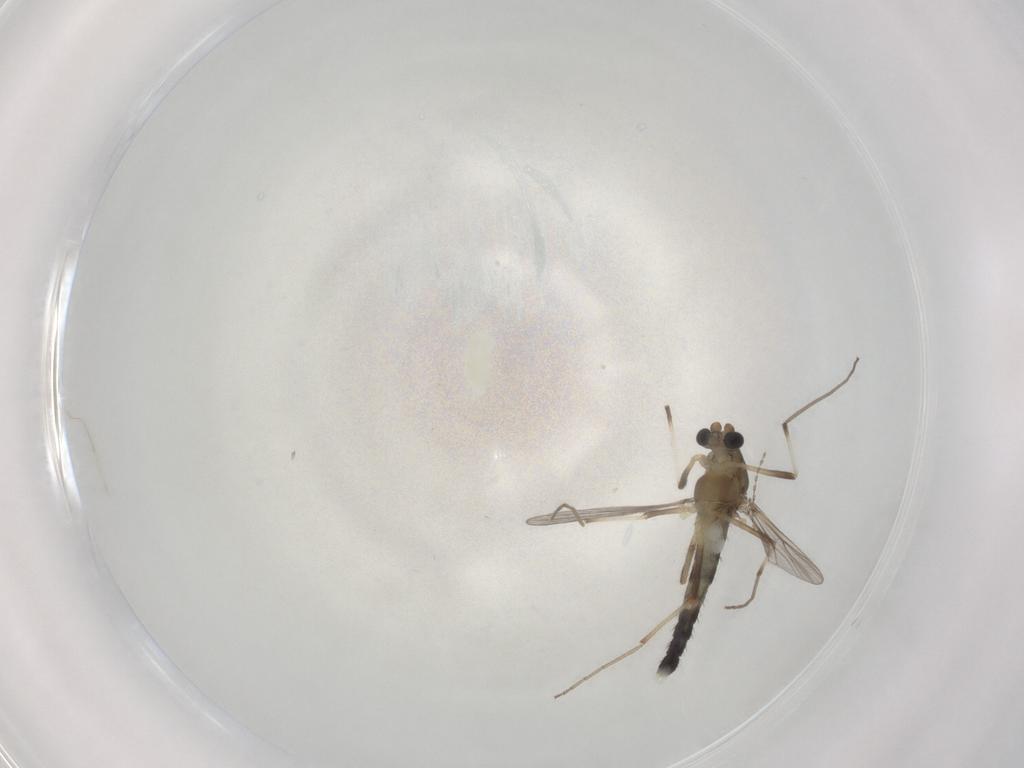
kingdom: Animalia
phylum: Arthropoda
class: Insecta
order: Diptera
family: Chironomidae
